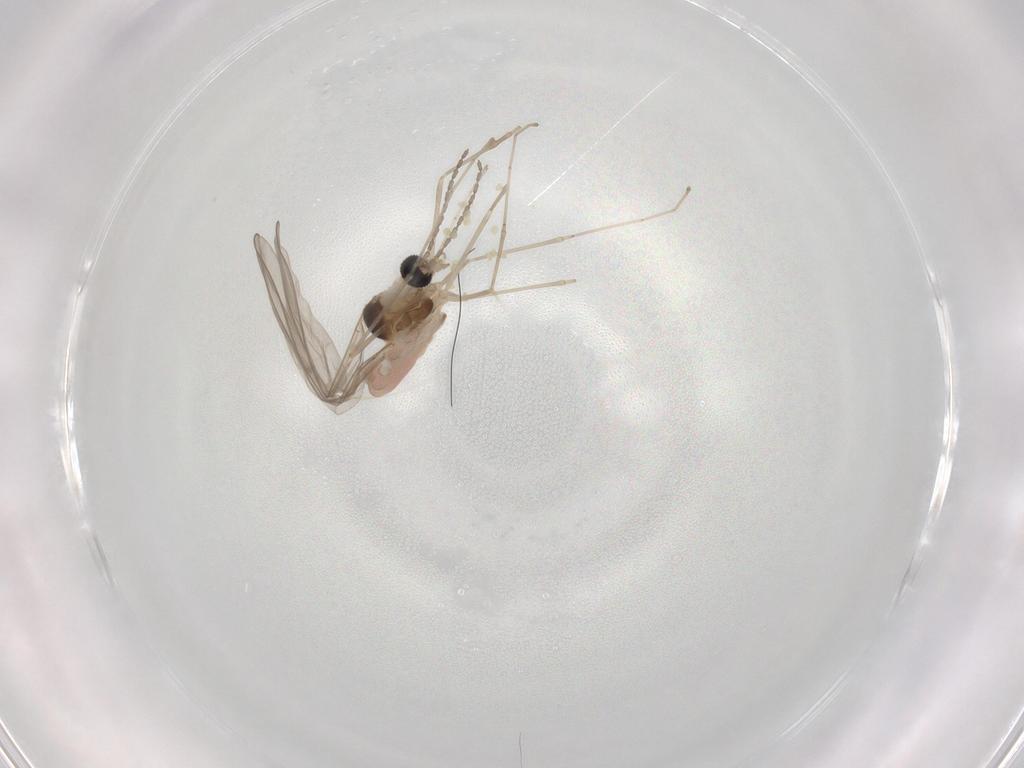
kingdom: Animalia
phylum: Arthropoda
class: Insecta
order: Diptera
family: Cecidomyiidae
